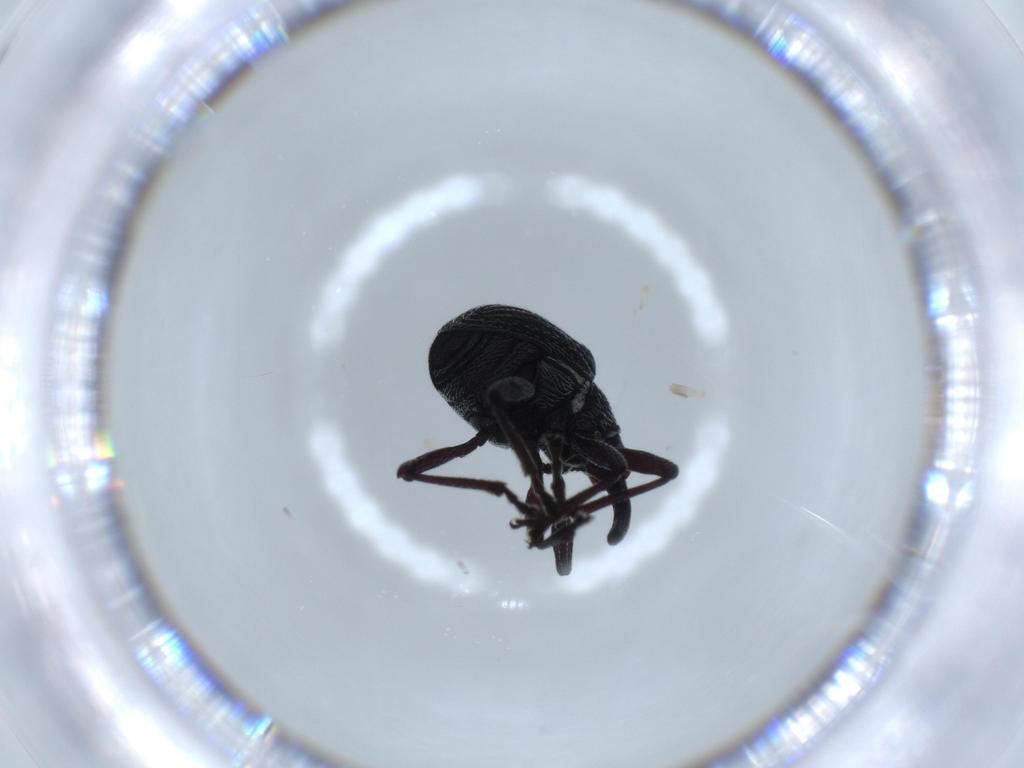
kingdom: Animalia
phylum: Arthropoda
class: Insecta
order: Coleoptera
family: Brentidae
